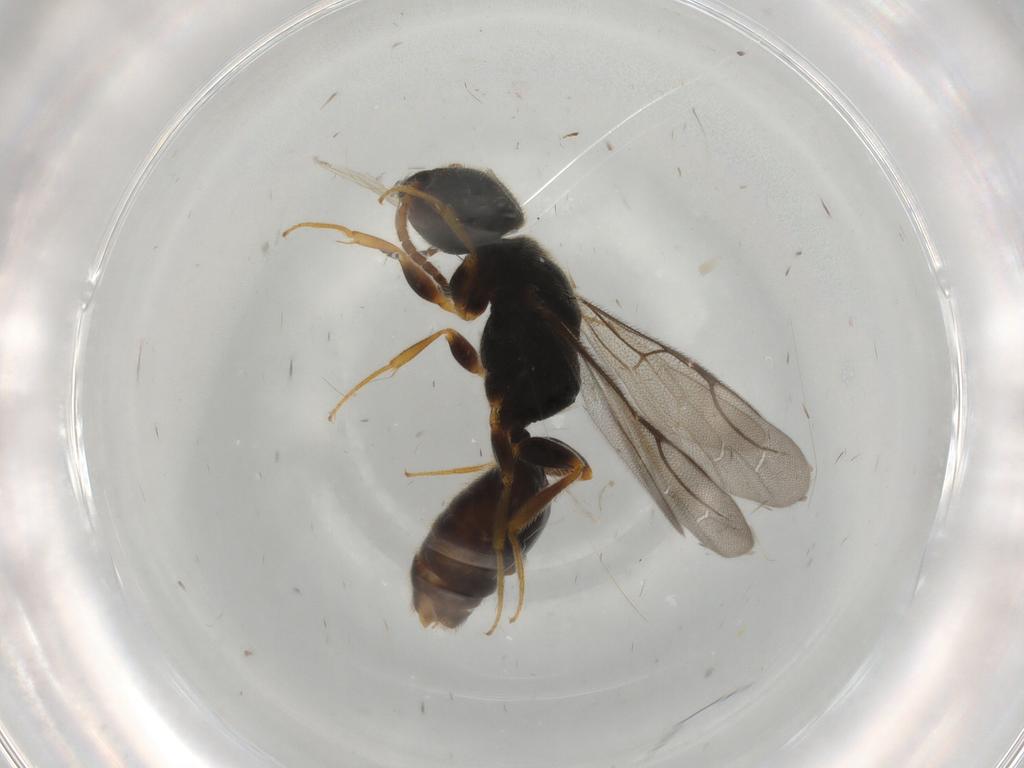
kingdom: Animalia
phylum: Arthropoda
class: Insecta
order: Hymenoptera
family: Bethylidae
